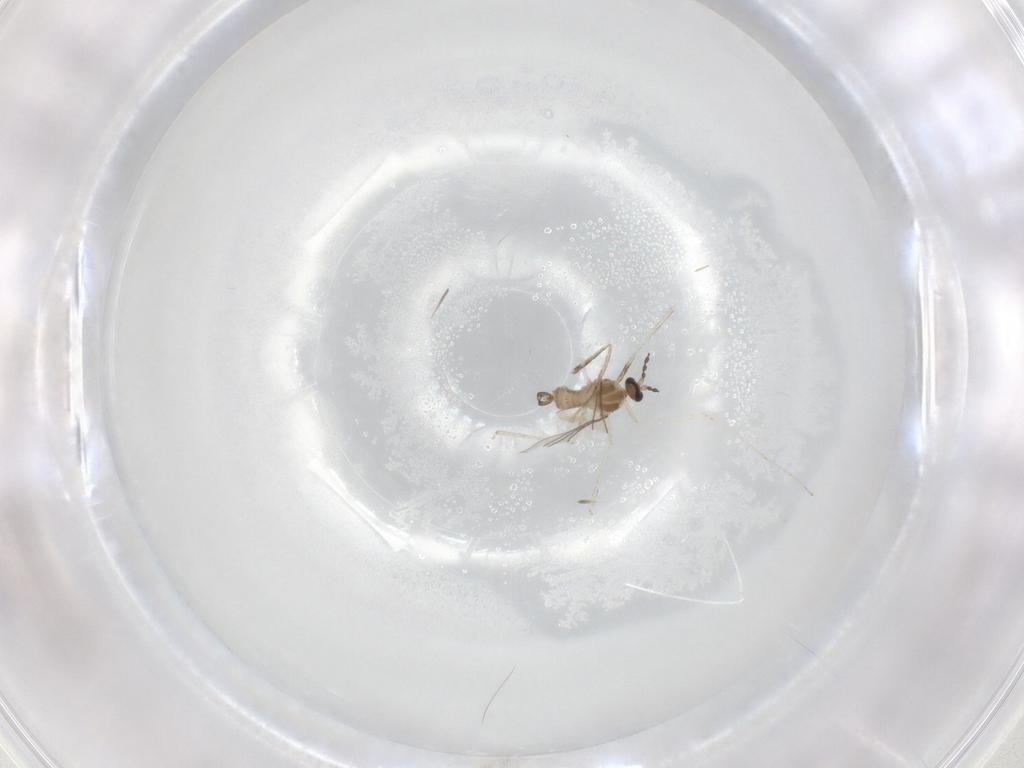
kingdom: Animalia
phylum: Arthropoda
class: Insecta
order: Diptera
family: Cecidomyiidae
